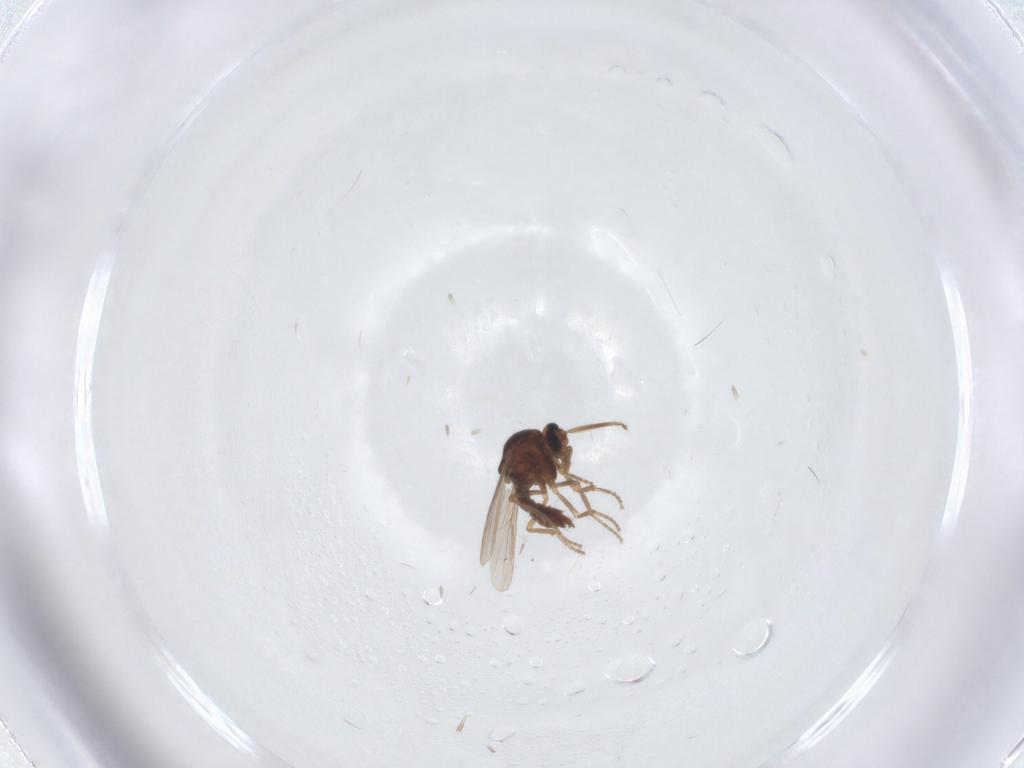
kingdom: Animalia
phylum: Arthropoda
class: Insecta
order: Diptera
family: Ceratopogonidae
